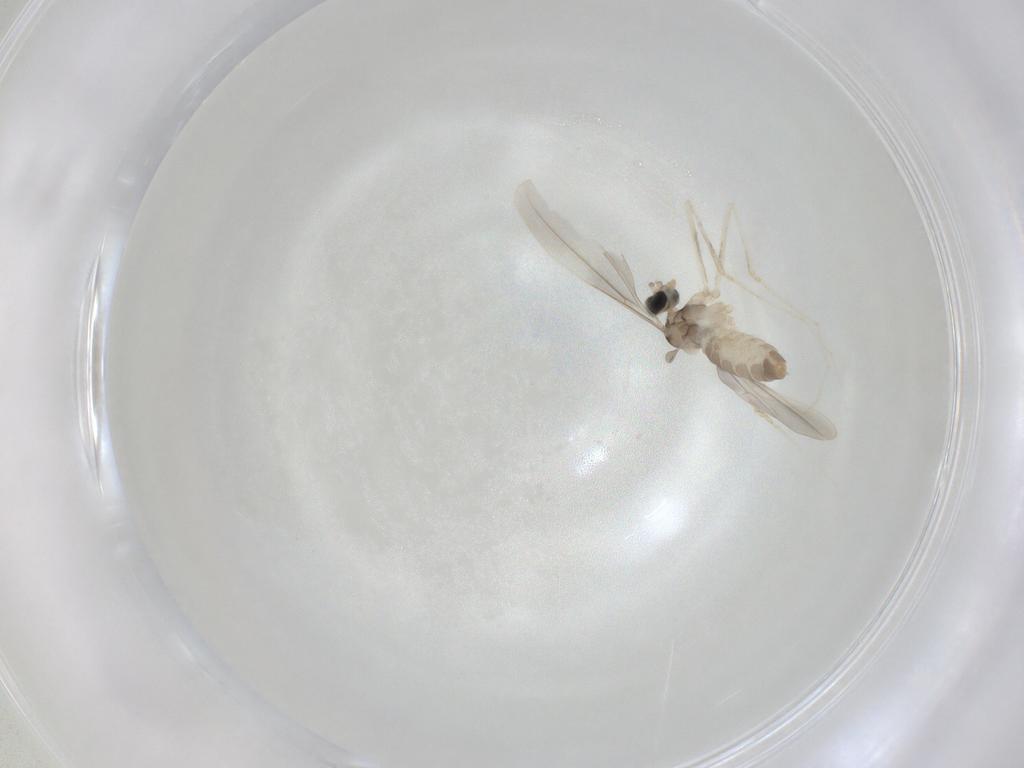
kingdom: Animalia
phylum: Arthropoda
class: Insecta
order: Diptera
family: Cecidomyiidae
